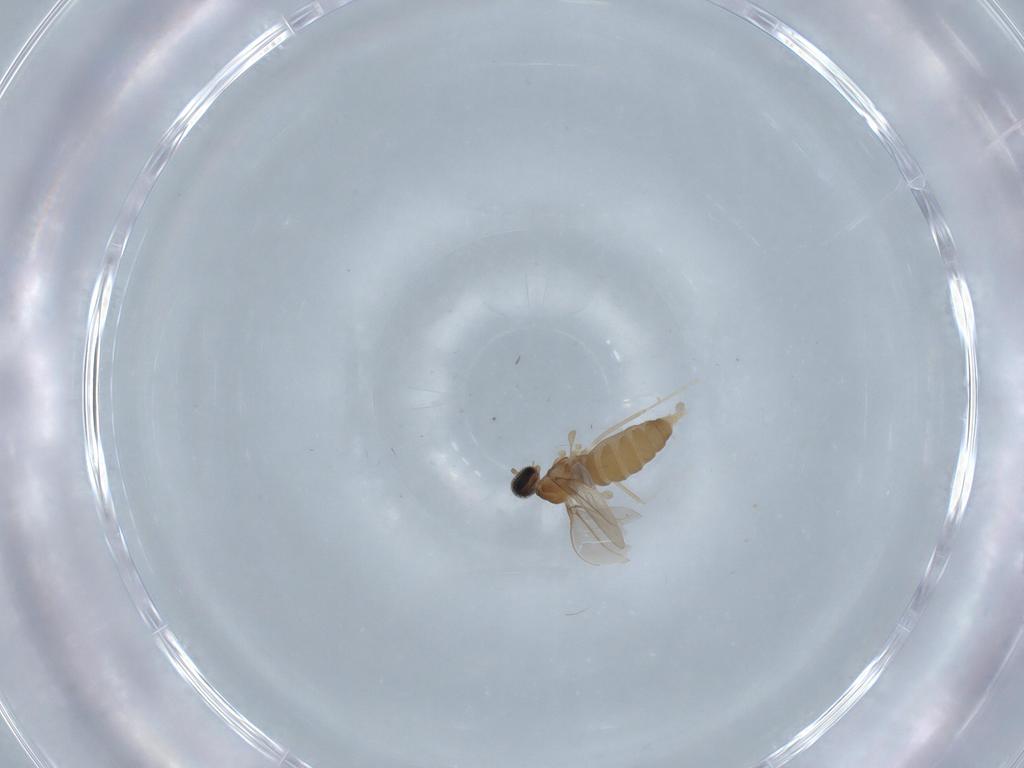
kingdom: Animalia
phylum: Arthropoda
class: Insecta
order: Diptera
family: Cecidomyiidae
